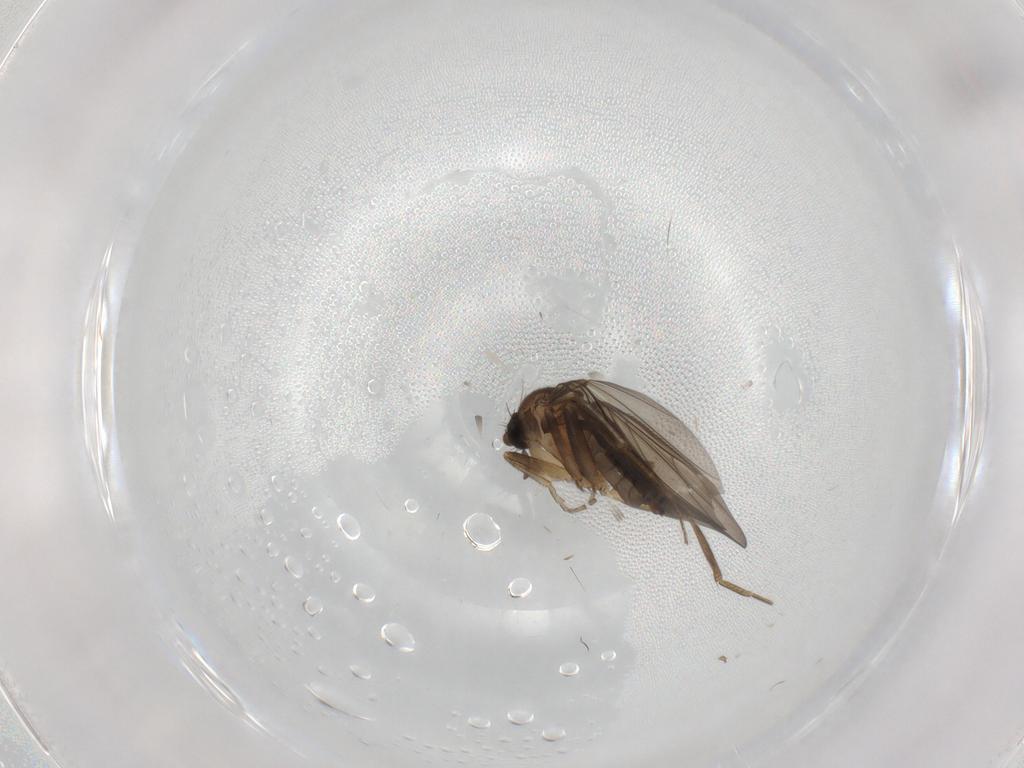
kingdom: Animalia
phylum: Arthropoda
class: Insecta
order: Diptera
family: Phoridae
